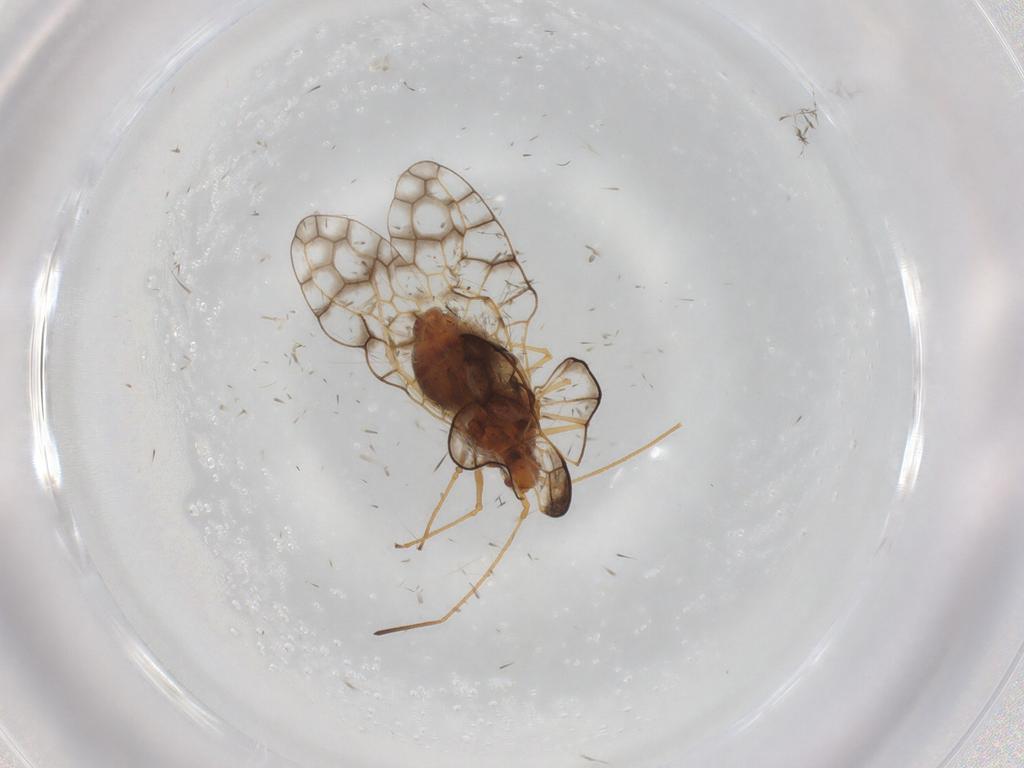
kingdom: Animalia
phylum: Arthropoda
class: Insecta
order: Hemiptera
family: Tingidae
